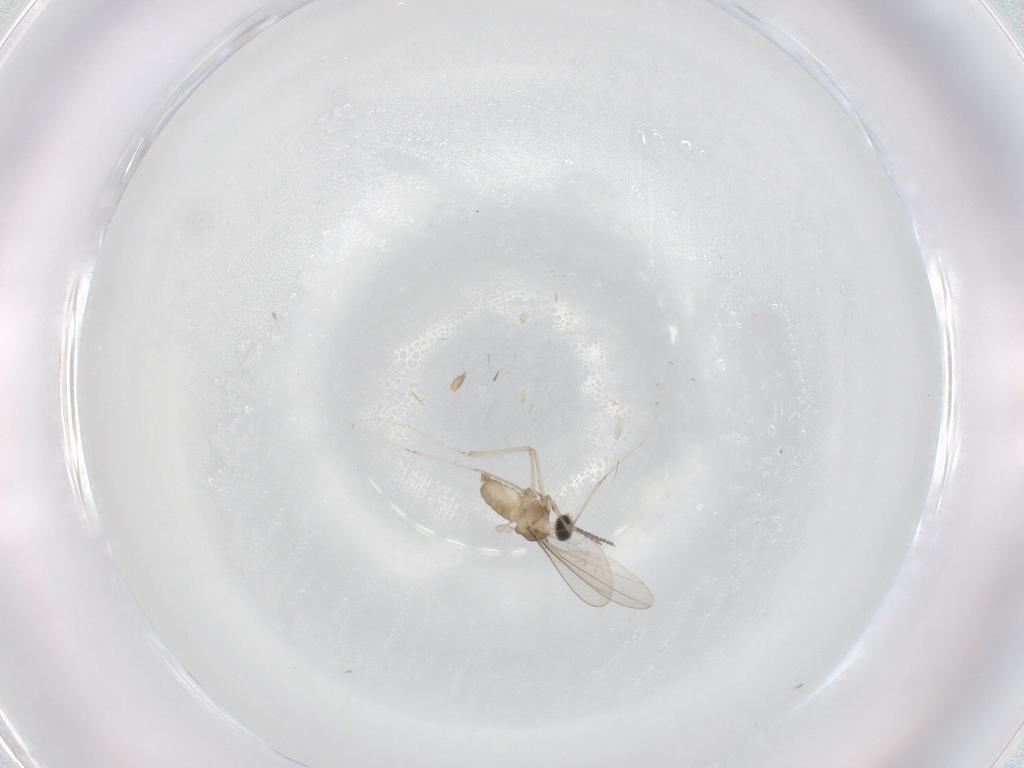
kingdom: Animalia
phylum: Arthropoda
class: Insecta
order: Diptera
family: Cecidomyiidae
